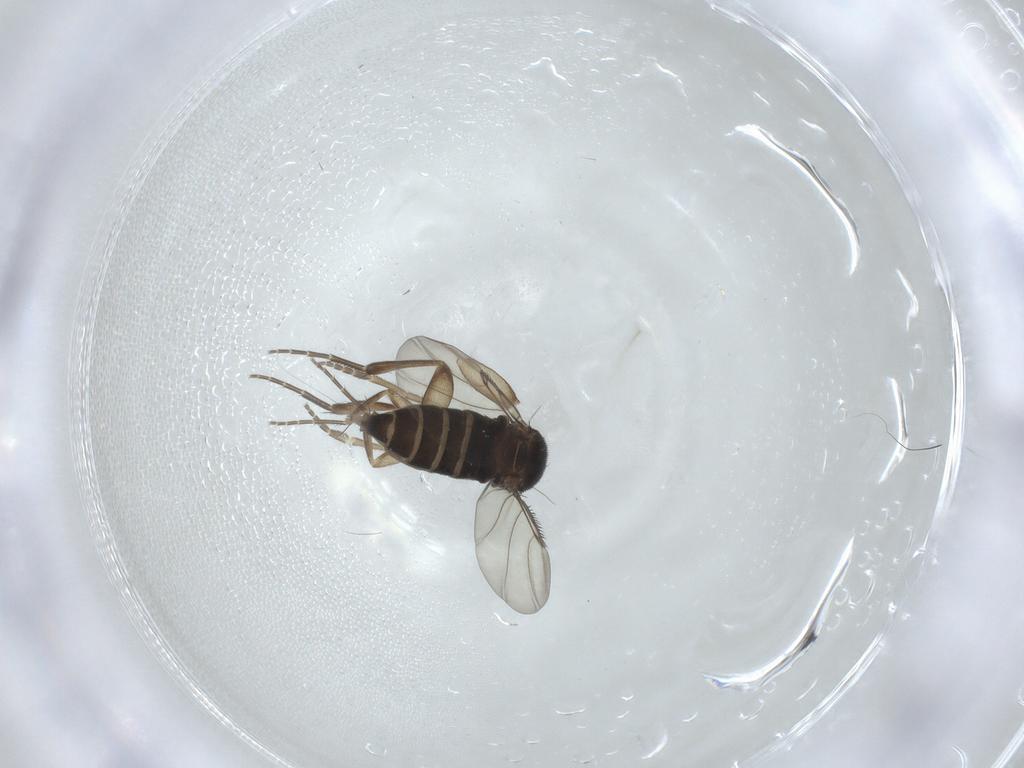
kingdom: Animalia
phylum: Arthropoda
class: Insecta
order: Diptera
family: Phoridae
